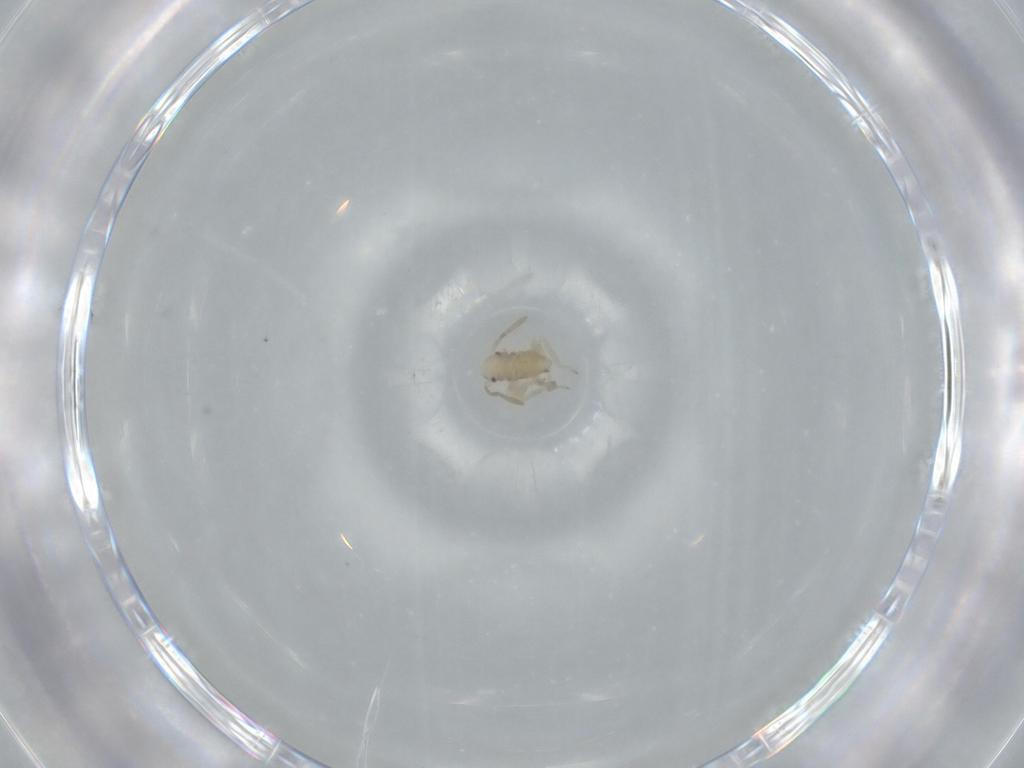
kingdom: Animalia
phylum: Arthropoda
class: Insecta
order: Hemiptera
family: Miridae
